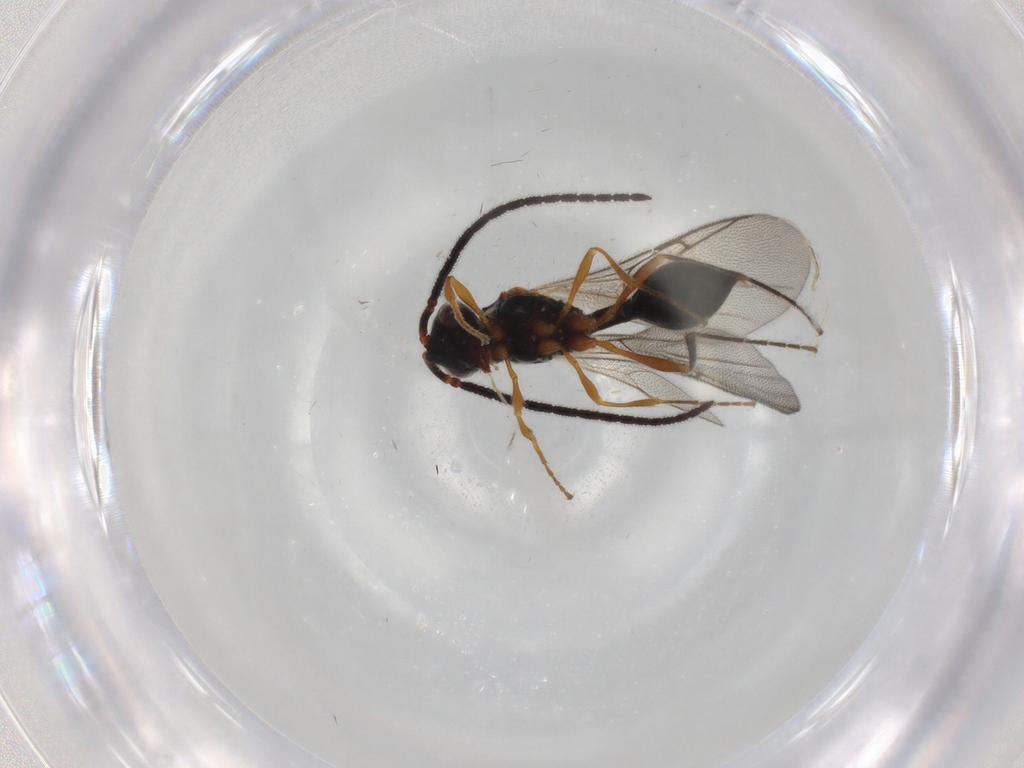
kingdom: Animalia
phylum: Arthropoda
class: Insecta
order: Hymenoptera
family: Diapriidae
